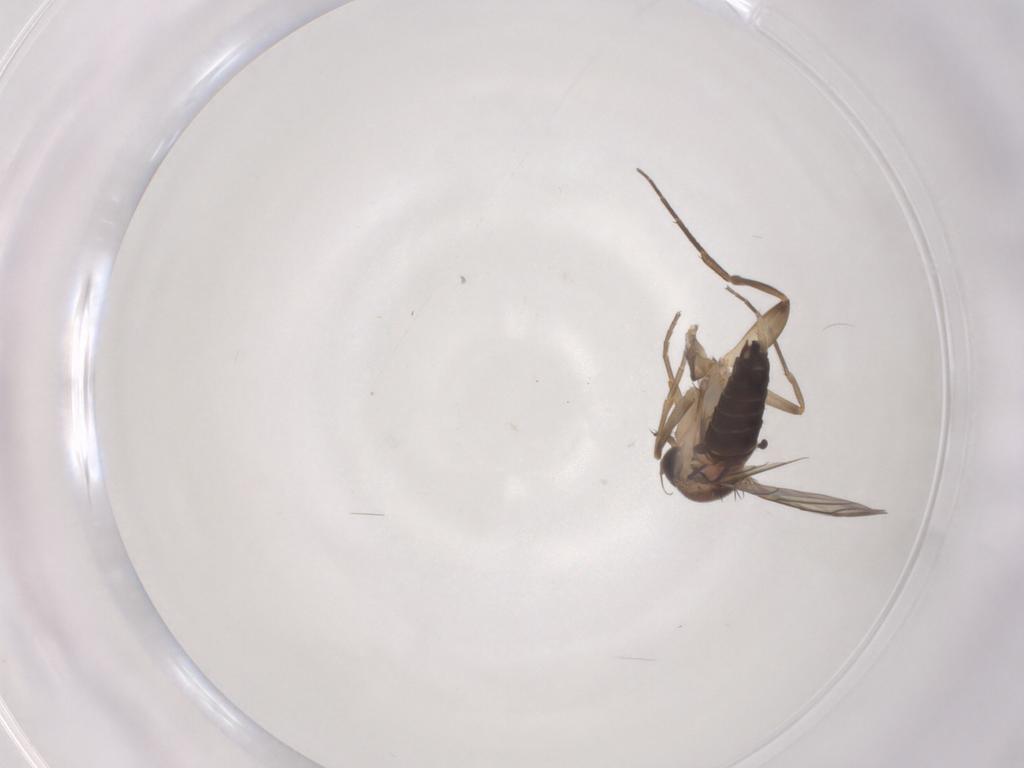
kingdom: Animalia
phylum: Arthropoda
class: Insecta
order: Diptera
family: Phoridae
